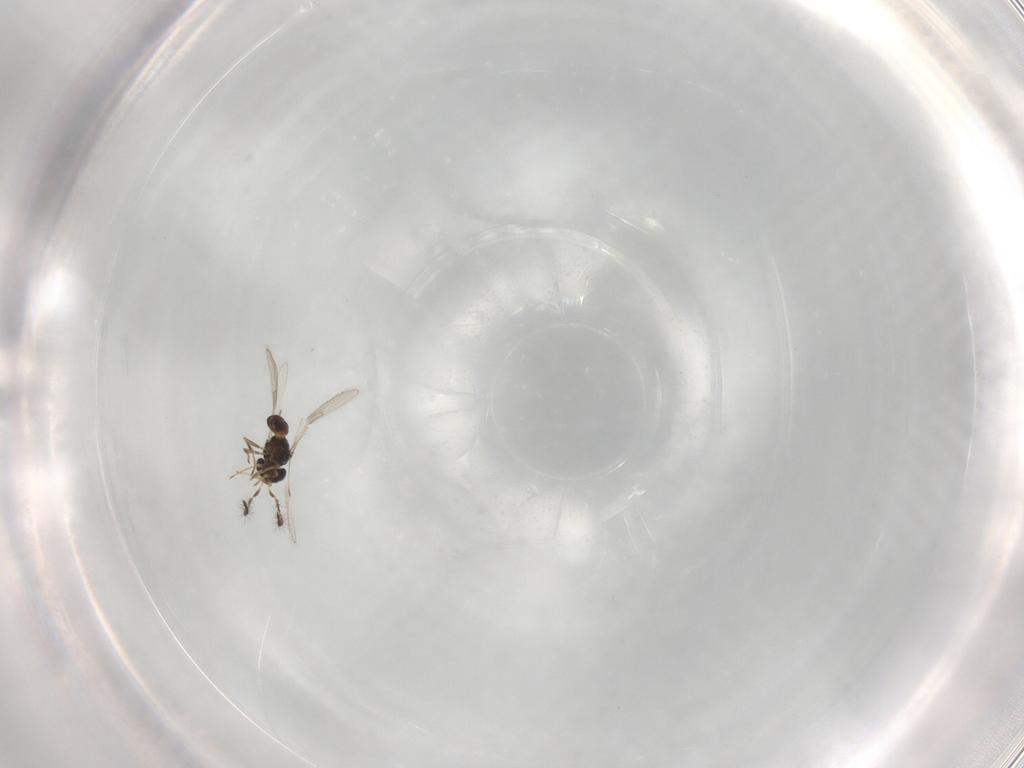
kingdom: Animalia
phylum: Arthropoda
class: Insecta
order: Hymenoptera
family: Scelionidae
